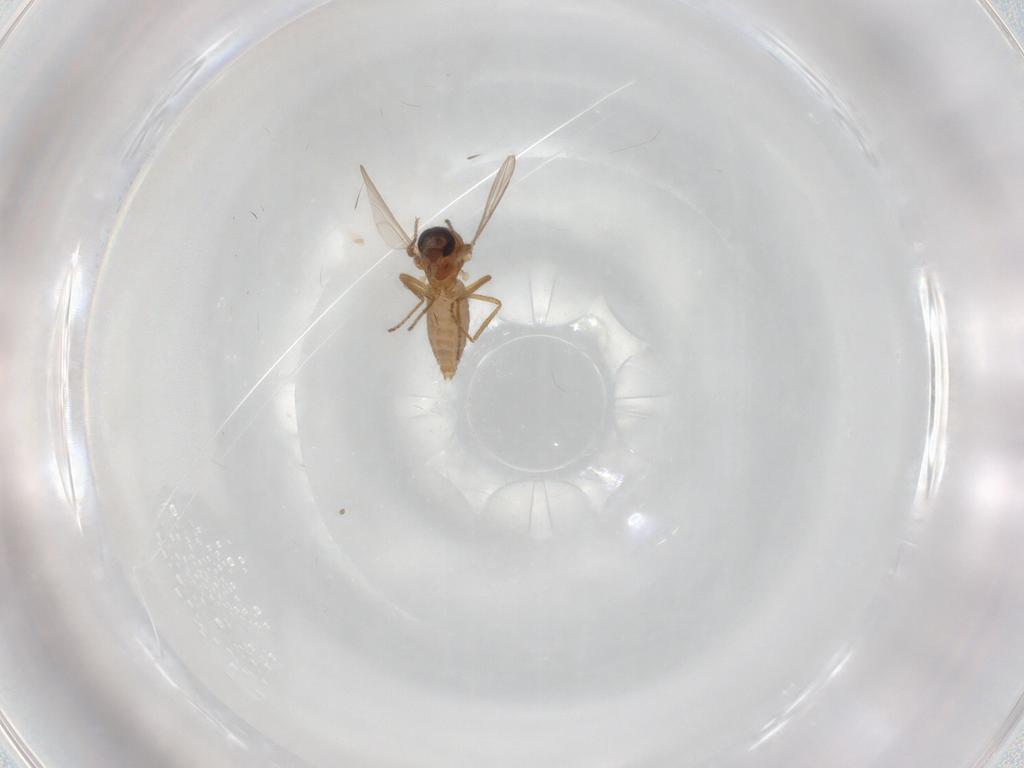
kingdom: Animalia
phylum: Arthropoda
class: Insecta
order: Diptera
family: Ceratopogonidae
